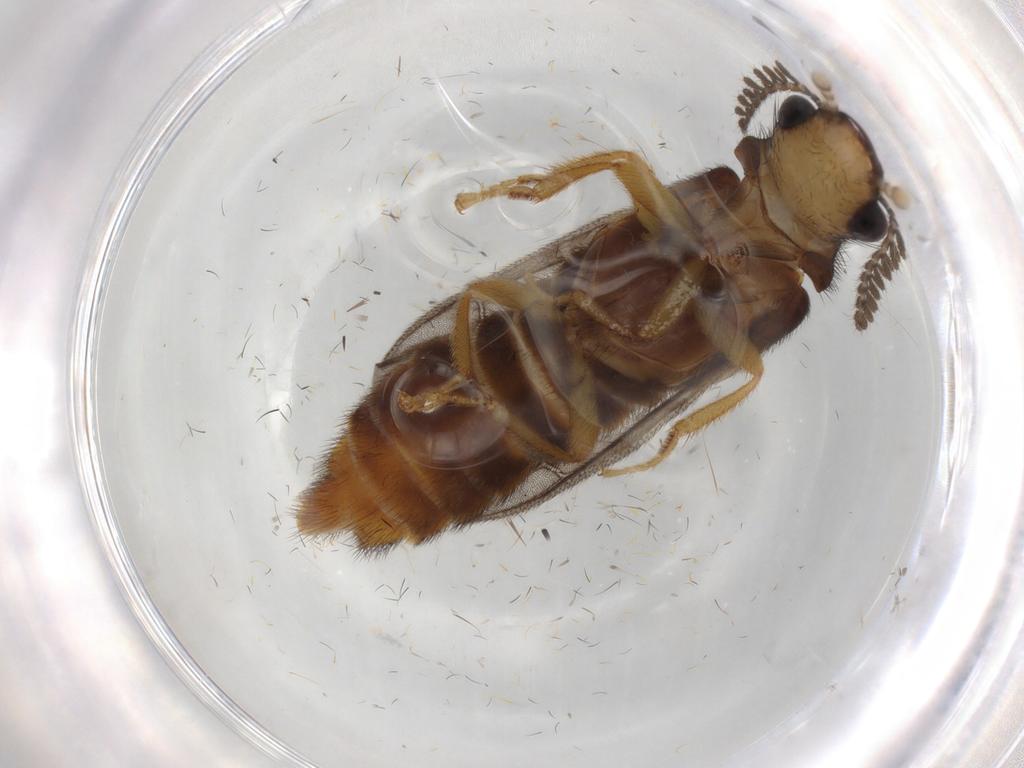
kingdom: Animalia
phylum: Arthropoda
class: Insecta
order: Coleoptera
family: Phengodidae
